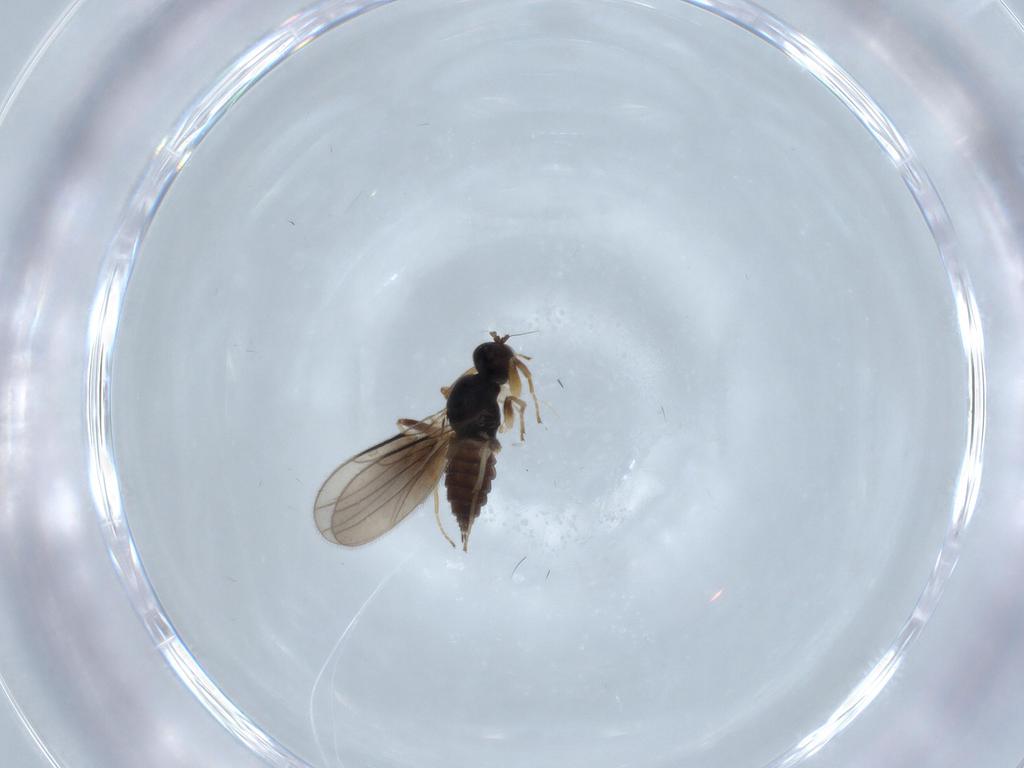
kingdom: Animalia
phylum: Arthropoda
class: Insecta
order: Diptera
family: Hybotidae
